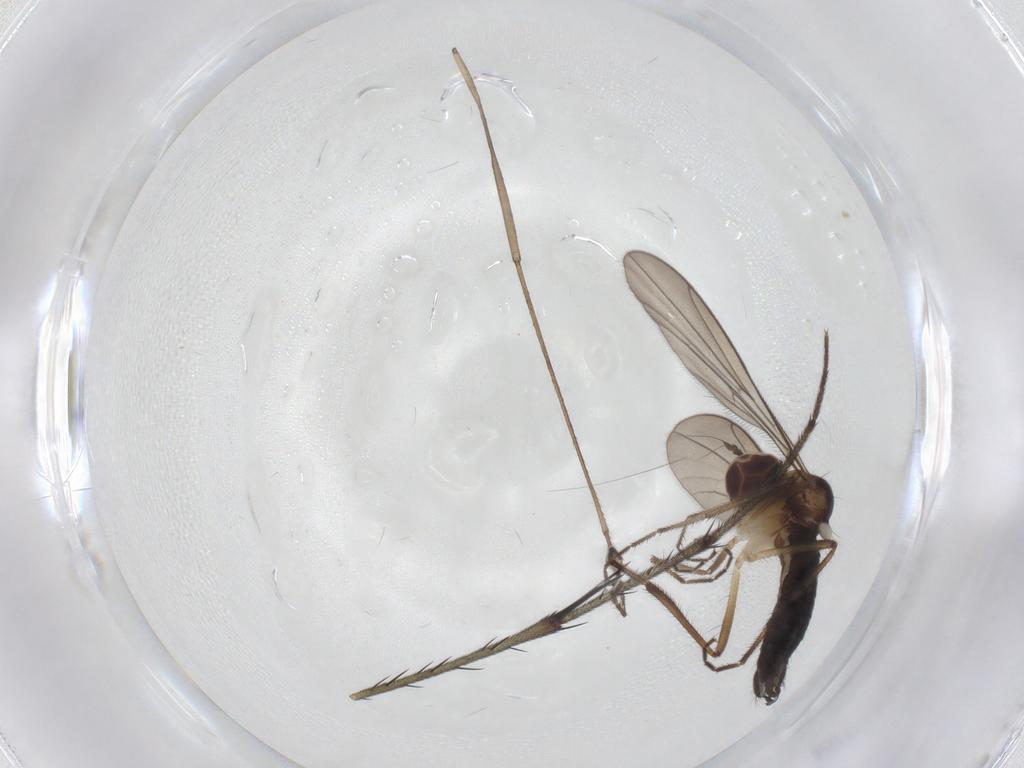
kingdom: Animalia
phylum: Arthropoda
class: Insecta
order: Diptera
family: Hybotidae
